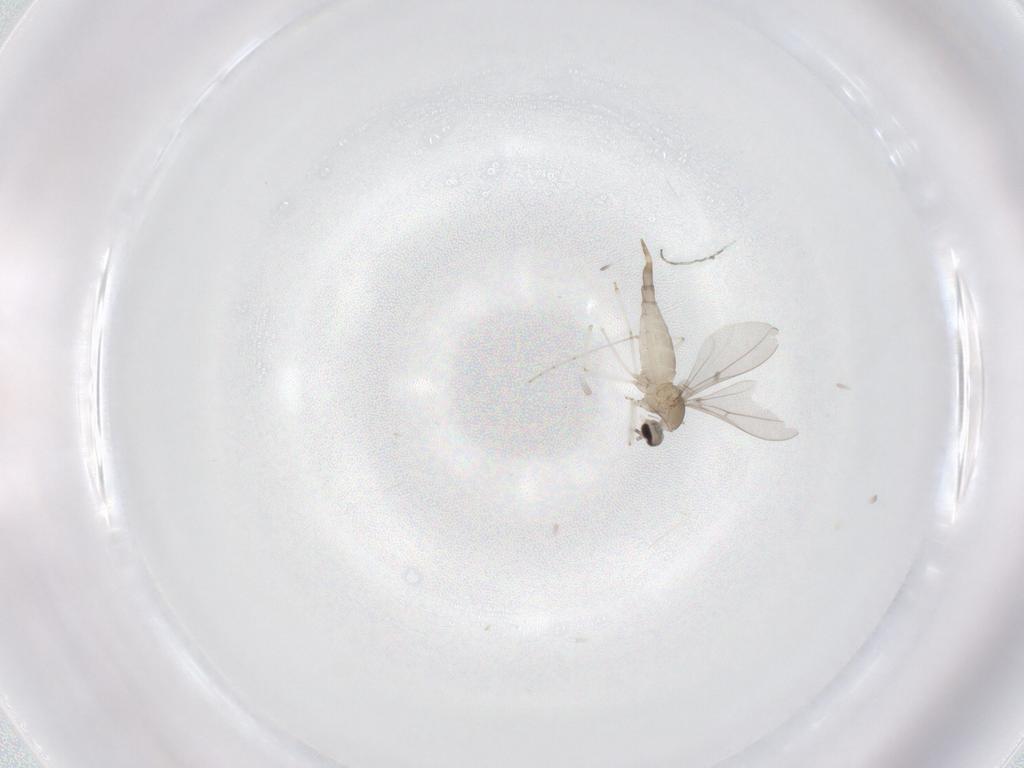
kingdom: Animalia
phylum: Arthropoda
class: Insecta
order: Diptera
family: Cecidomyiidae
